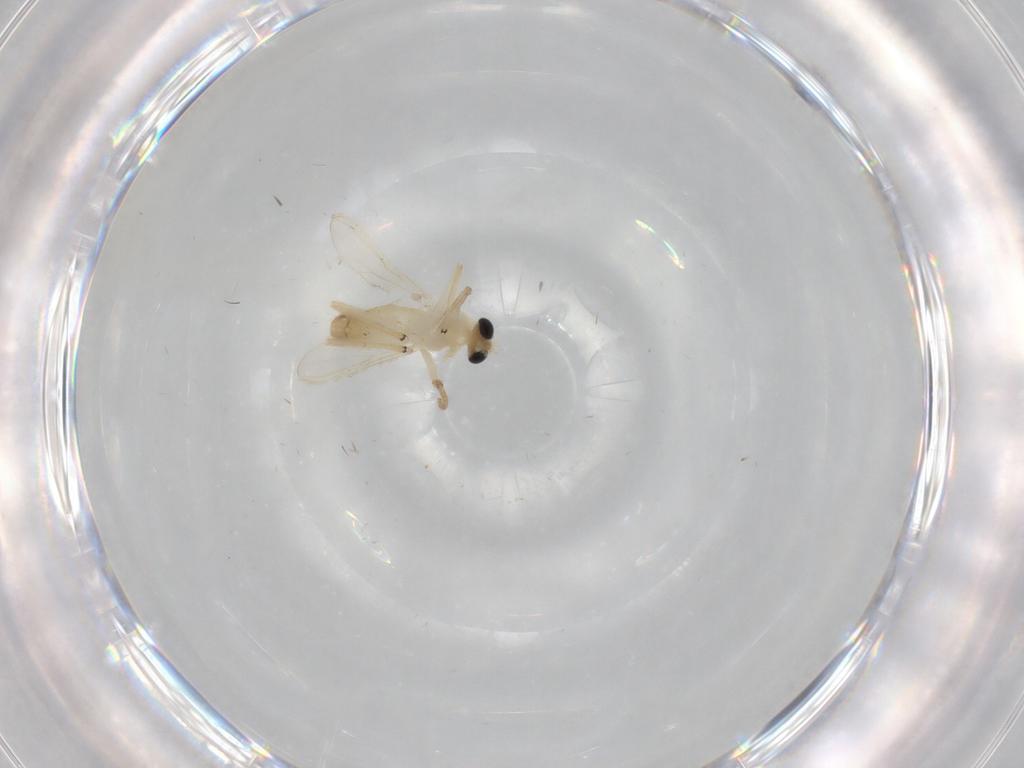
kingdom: Animalia
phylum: Arthropoda
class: Insecta
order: Diptera
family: Chironomidae
